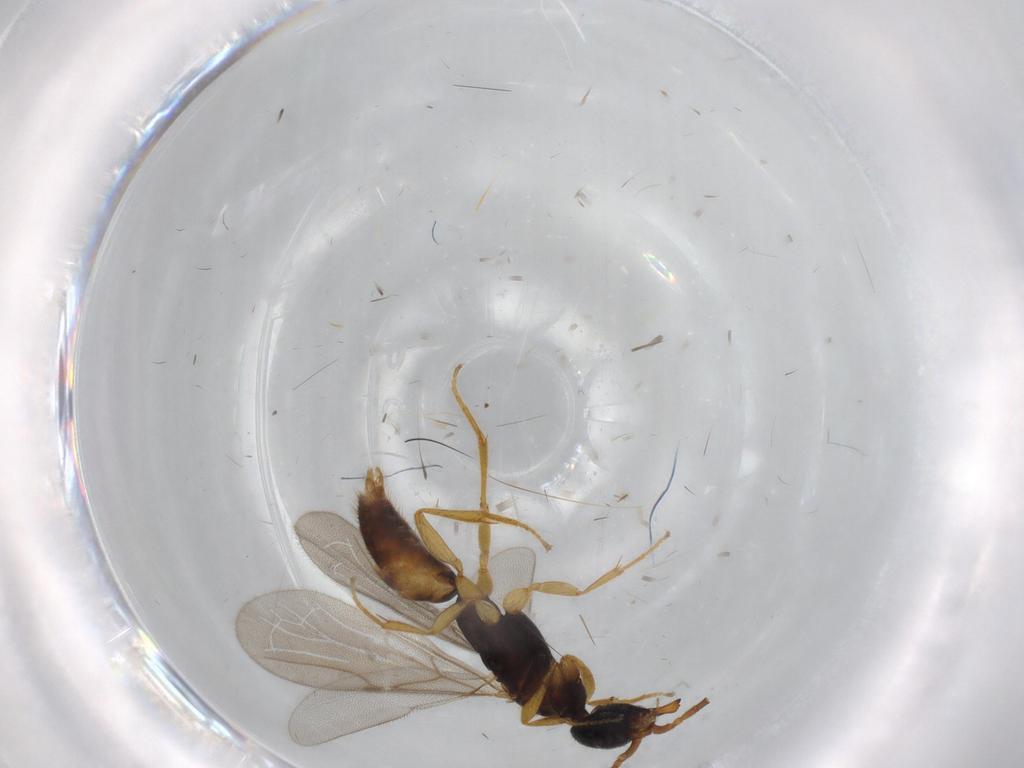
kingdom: Animalia
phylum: Arthropoda
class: Insecta
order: Hymenoptera
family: Bethylidae
